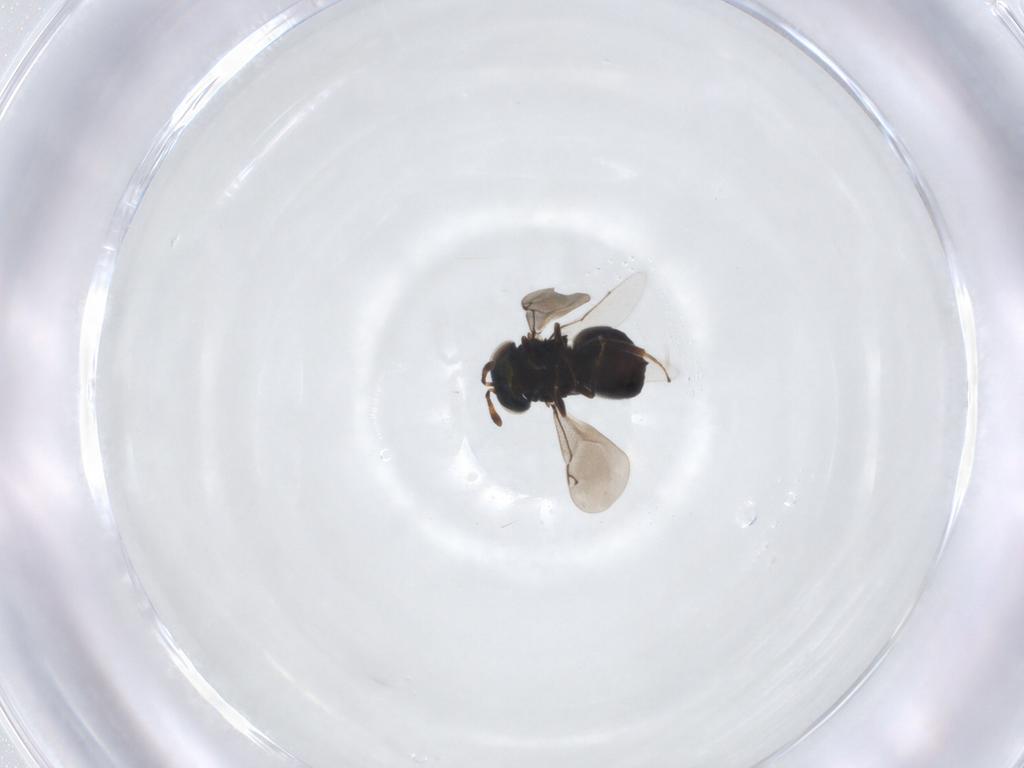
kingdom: Animalia
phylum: Arthropoda
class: Insecta
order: Hymenoptera
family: Eunotidae
